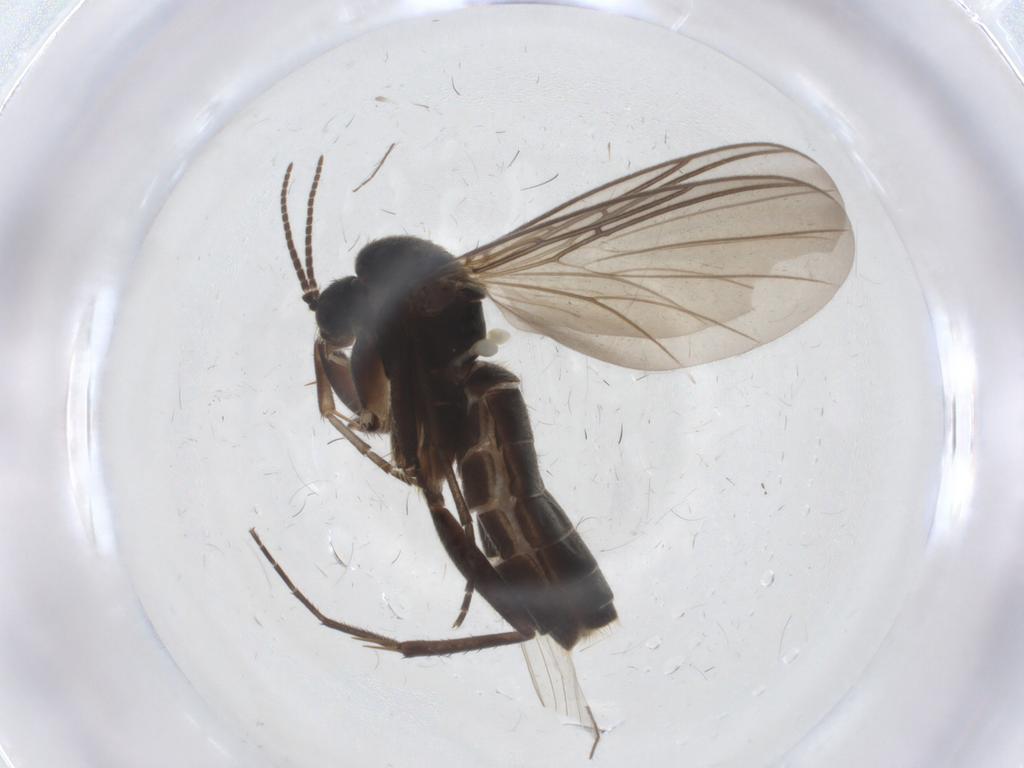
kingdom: Animalia
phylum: Arthropoda
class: Insecta
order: Diptera
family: Mycetophilidae
